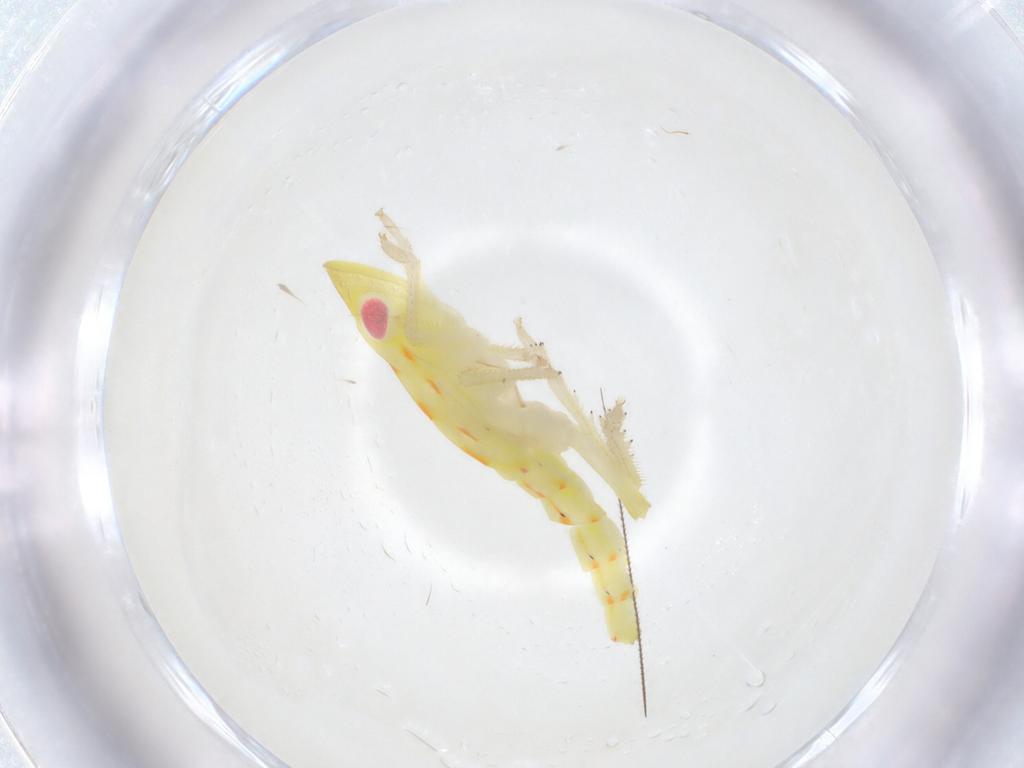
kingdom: Animalia
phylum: Arthropoda
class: Insecta
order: Hemiptera
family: Tropiduchidae
